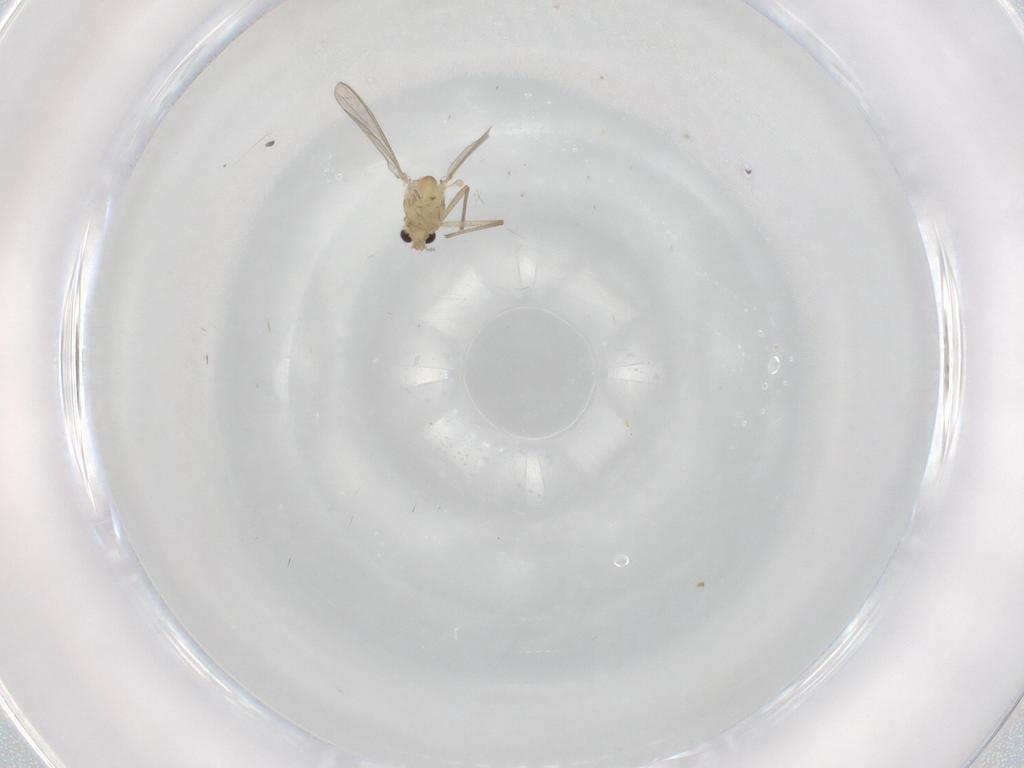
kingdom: Animalia
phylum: Arthropoda
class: Insecta
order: Diptera
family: Chironomidae
